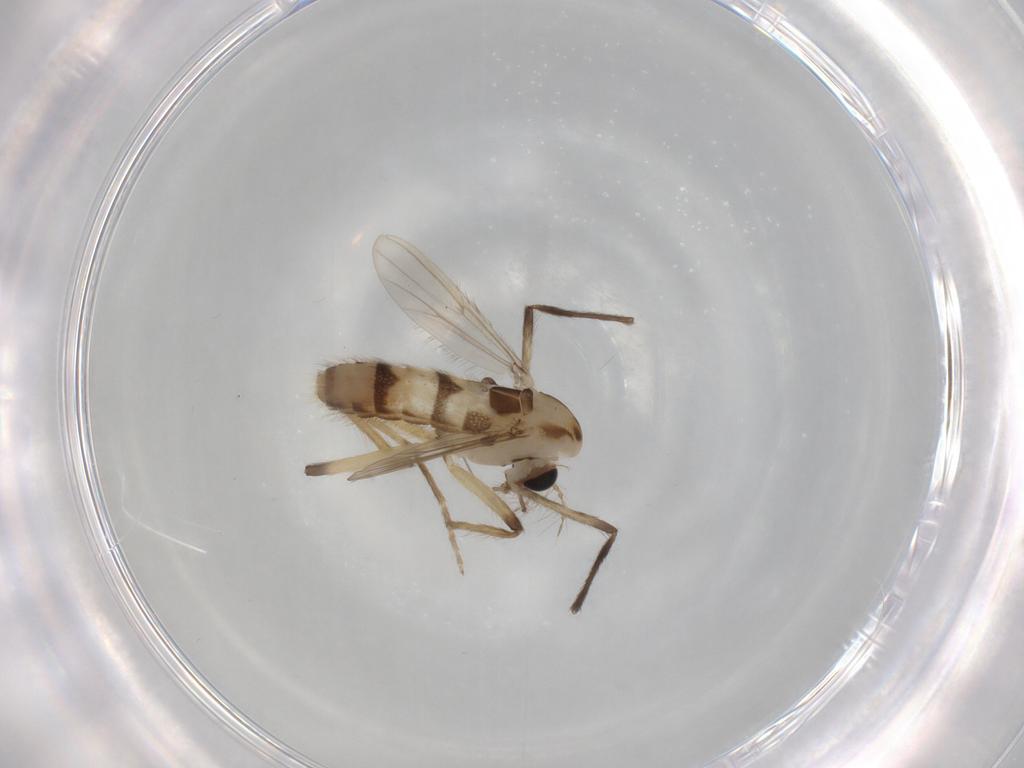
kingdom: Animalia
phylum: Arthropoda
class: Insecta
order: Diptera
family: Chironomidae
